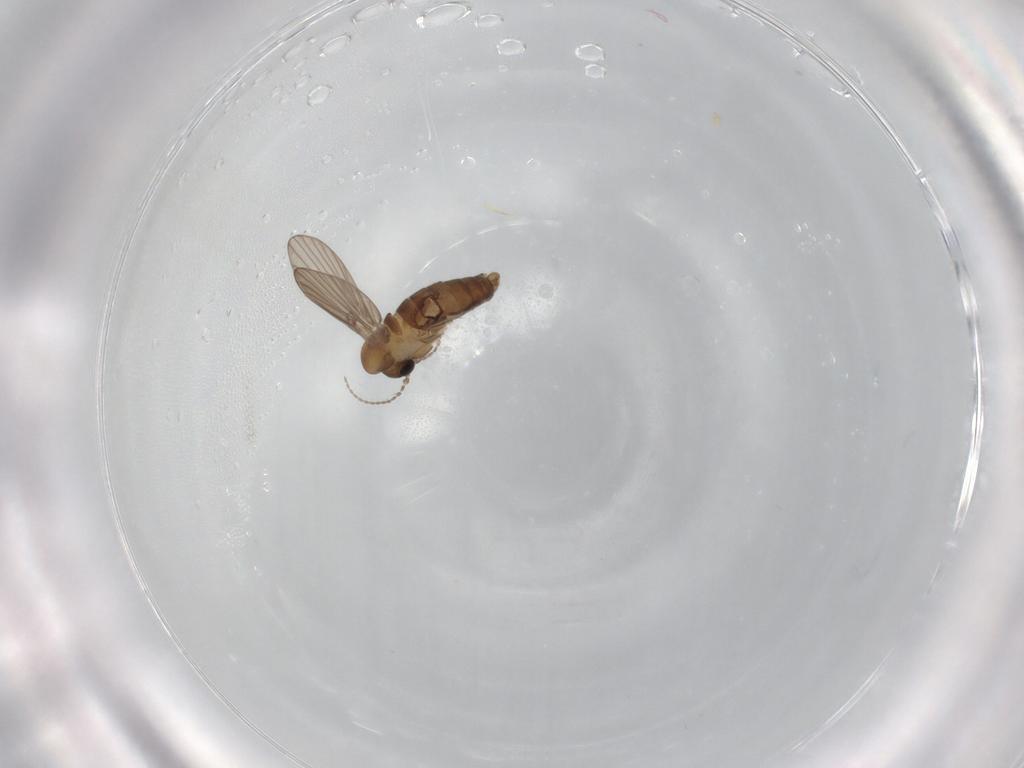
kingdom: Animalia
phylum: Arthropoda
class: Insecta
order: Diptera
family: Psychodidae
